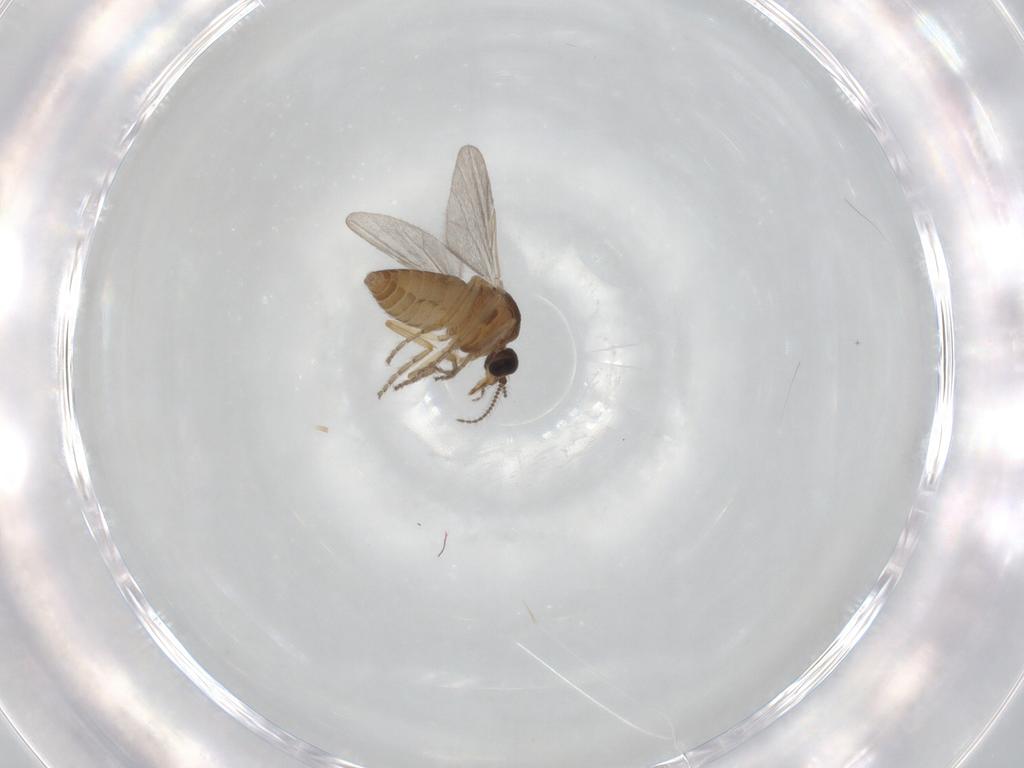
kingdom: Animalia
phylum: Arthropoda
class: Insecta
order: Diptera
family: Ceratopogonidae
